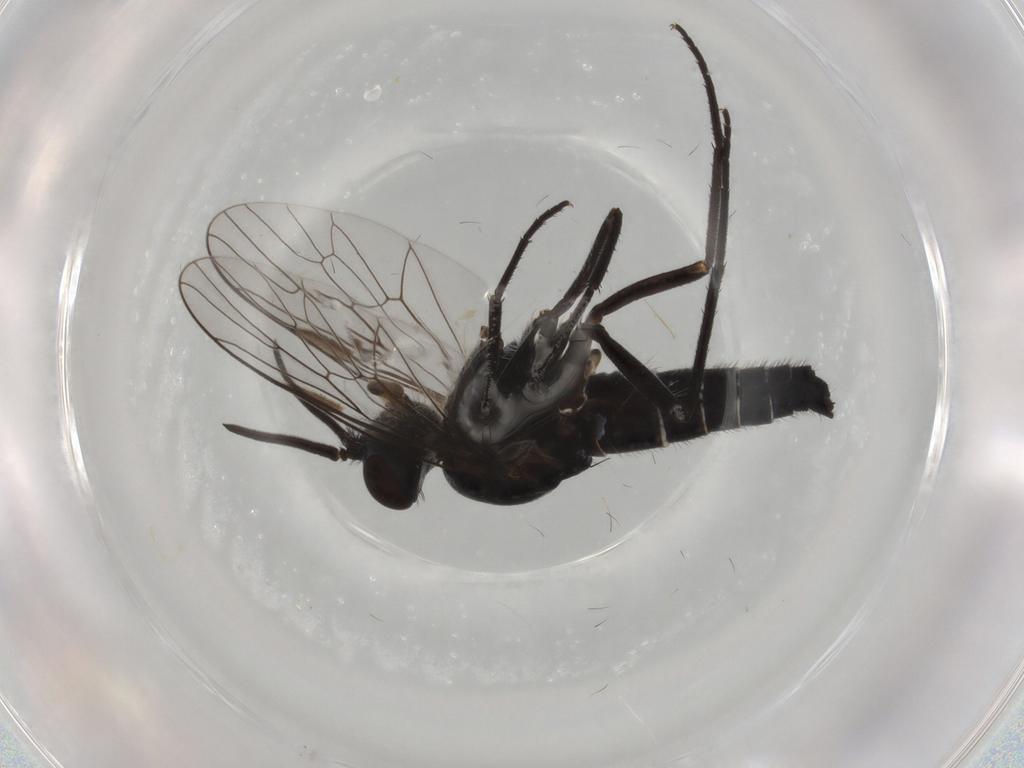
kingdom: Animalia
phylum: Arthropoda
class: Insecta
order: Diptera
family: Therevidae
